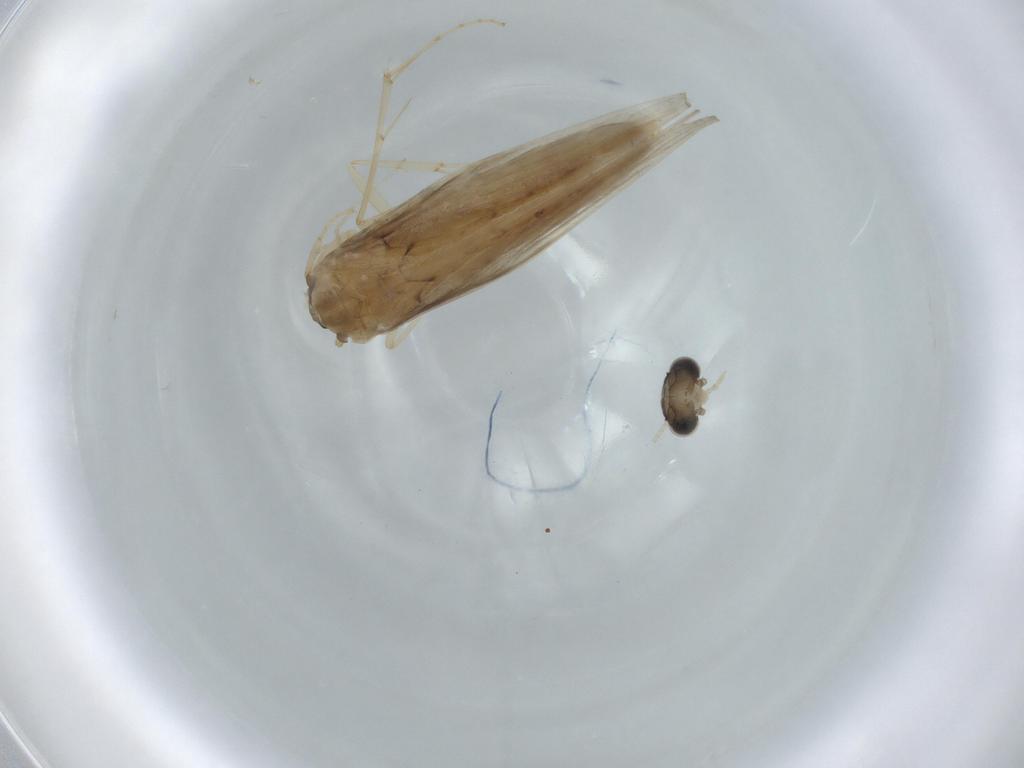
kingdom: Animalia
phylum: Arthropoda
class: Insecta
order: Trichoptera
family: Hydroptilidae
